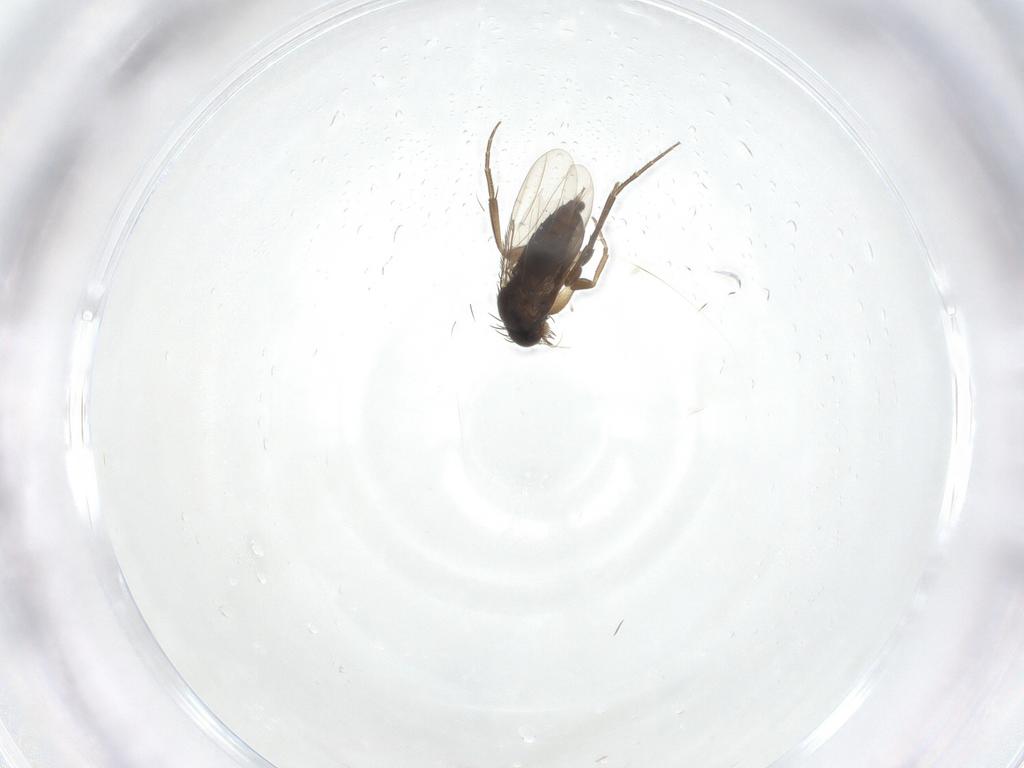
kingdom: Animalia
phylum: Arthropoda
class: Insecta
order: Diptera
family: Phoridae
